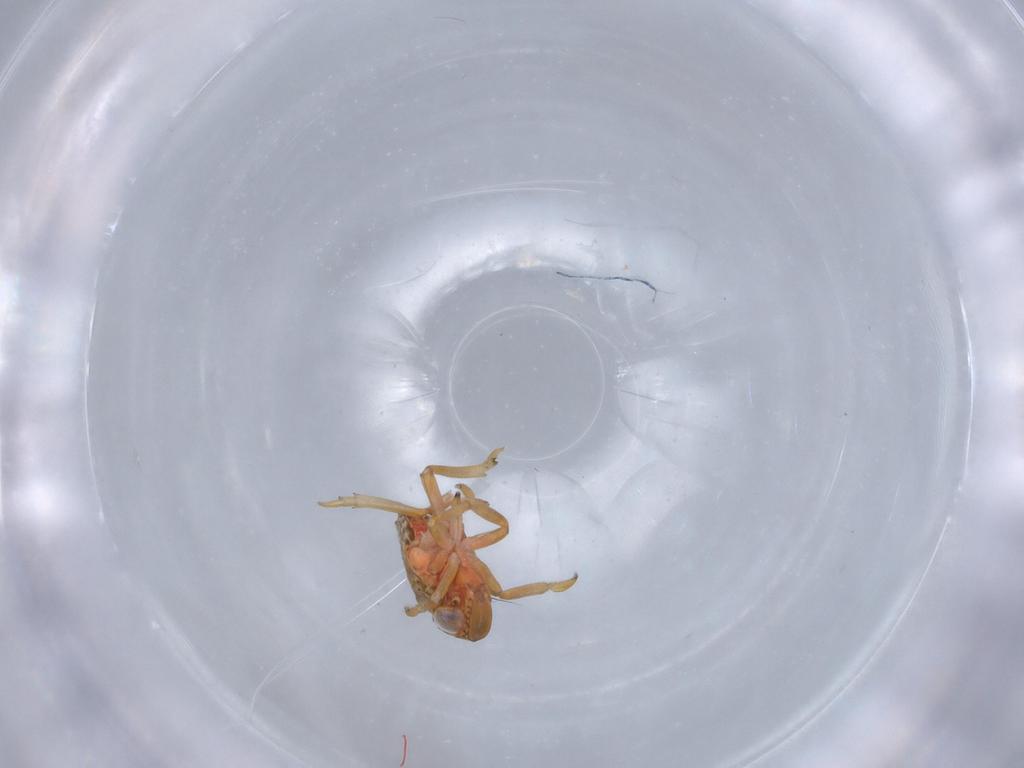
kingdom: Animalia
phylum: Arthropoda
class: Insecta
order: Hemiptera
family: Issidae
